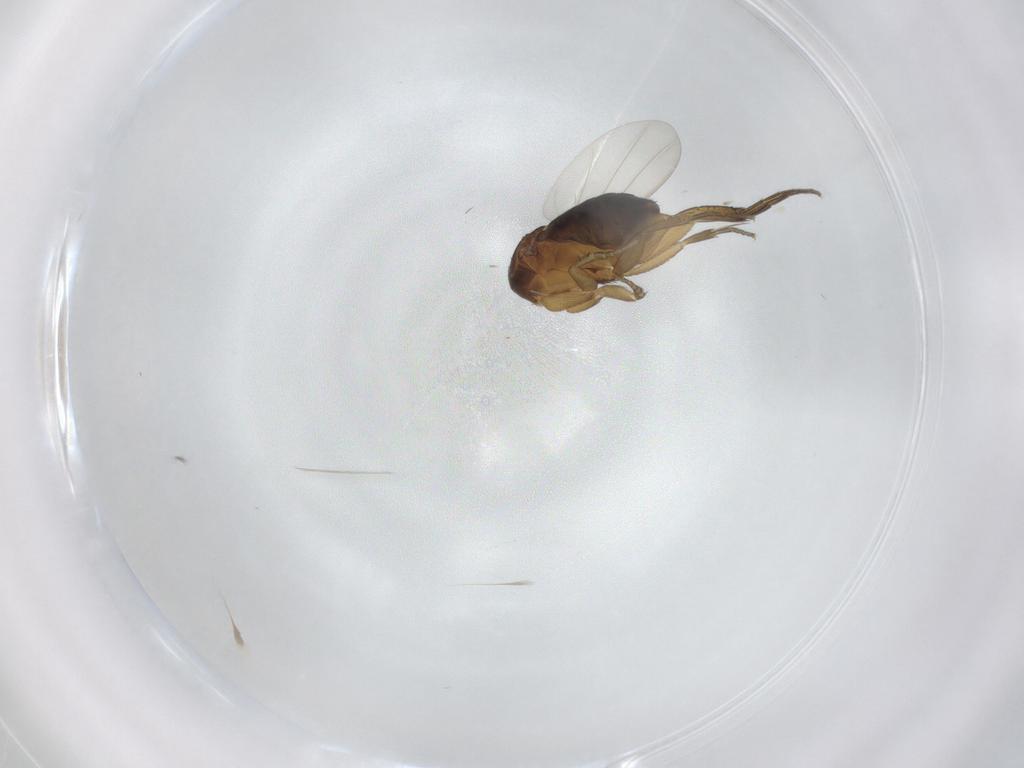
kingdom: Animalia
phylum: Arthropoda
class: Insecta
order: Diptera
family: Phoridae
